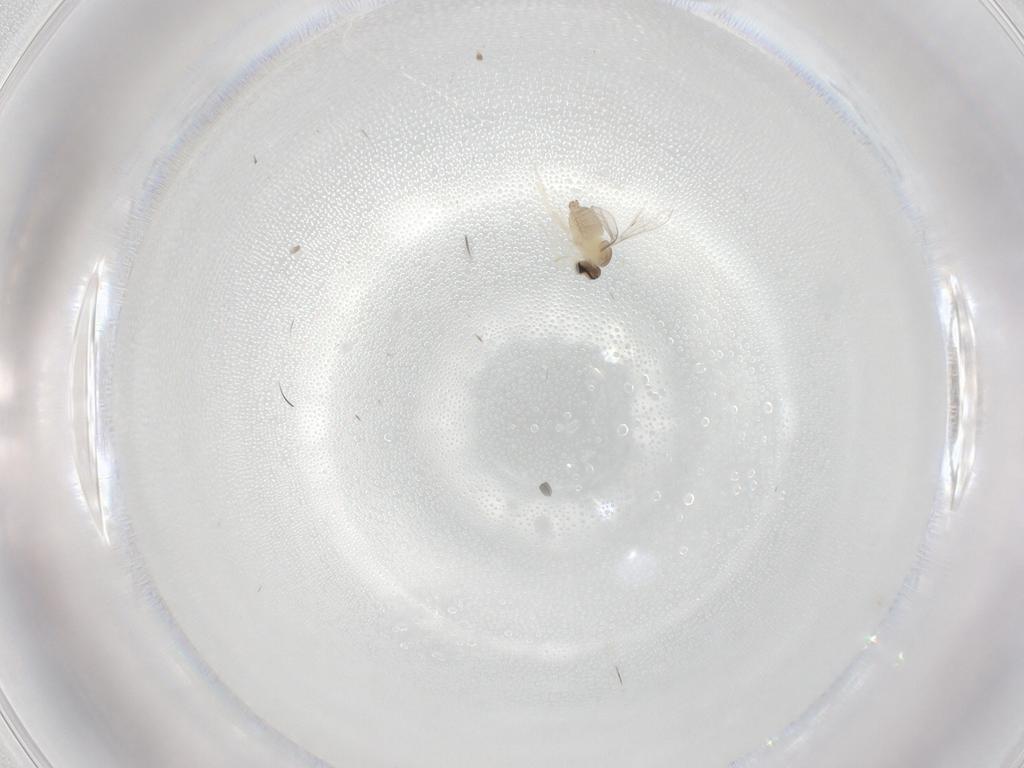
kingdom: Animalia
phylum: Arthropoda
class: Insecta
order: Diptera
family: Cecidomyiidae
